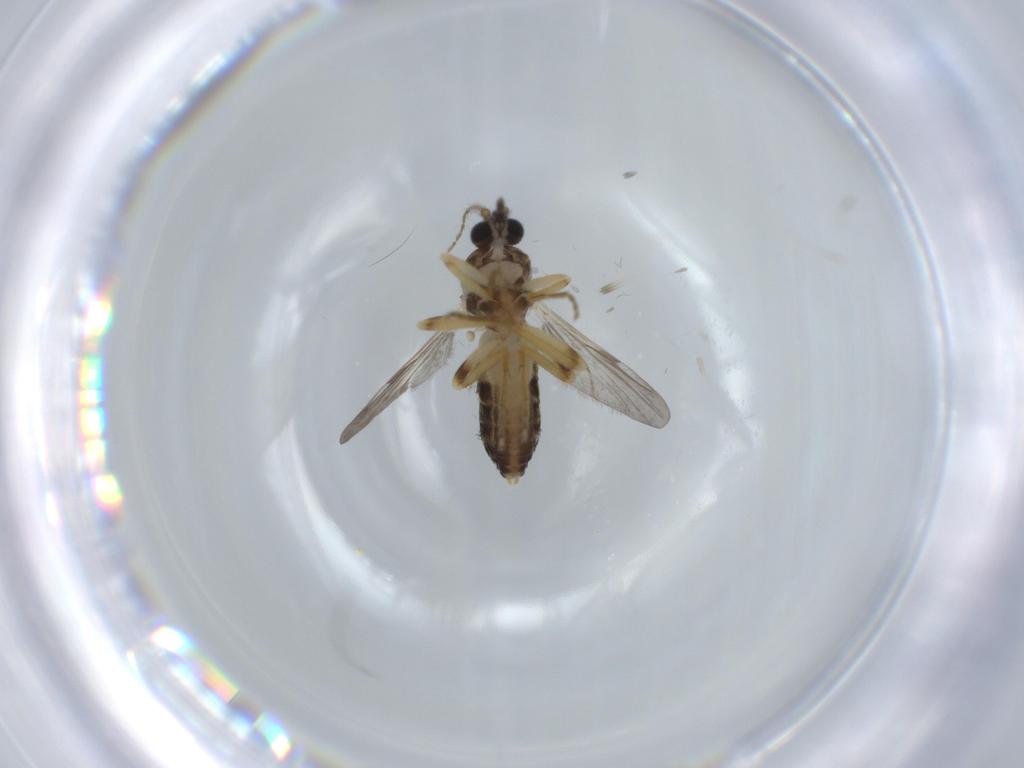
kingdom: Animalia
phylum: Arthropoda
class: Insecta
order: Diptera
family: Ceratopogonidae
